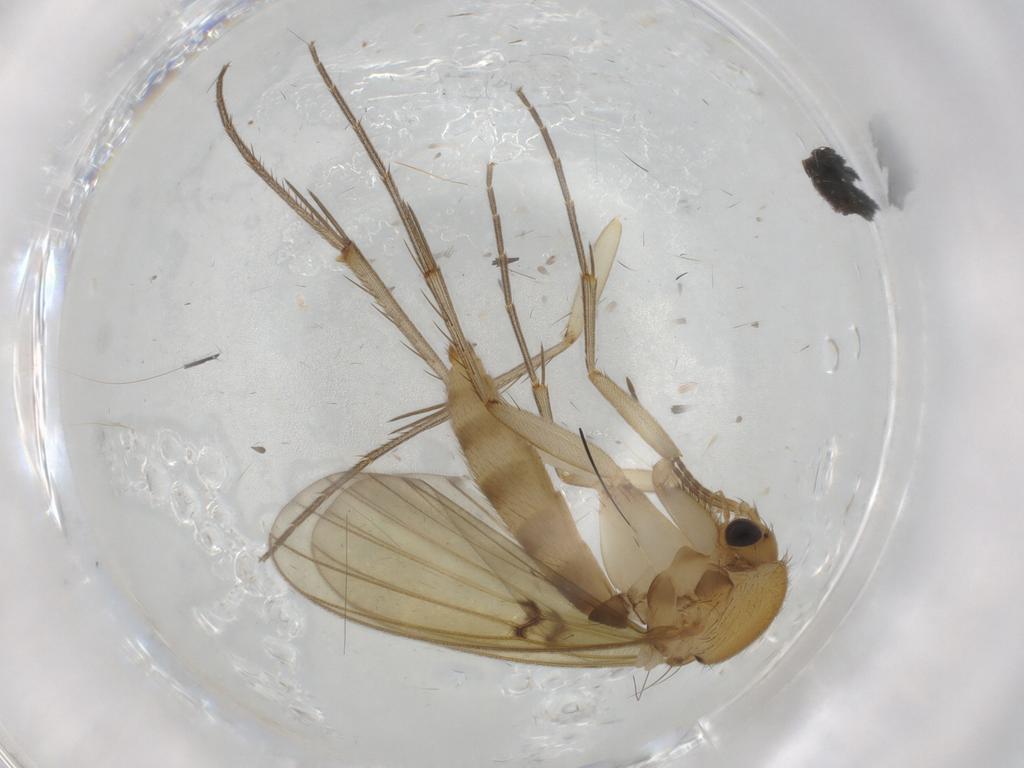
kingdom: Animalia
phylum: Arthropoda
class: Insecta
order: Diptera
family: Mycetophilidae
